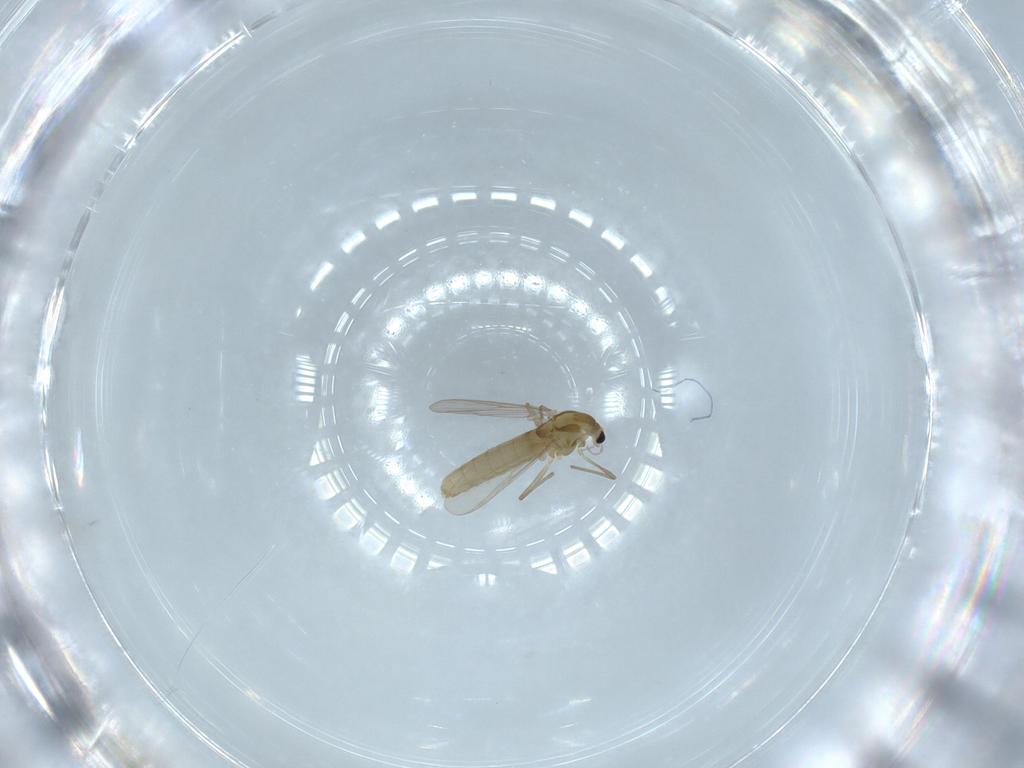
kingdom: Animalia
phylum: Arthropoda
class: Insecta
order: Diptera
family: Chironomidae
